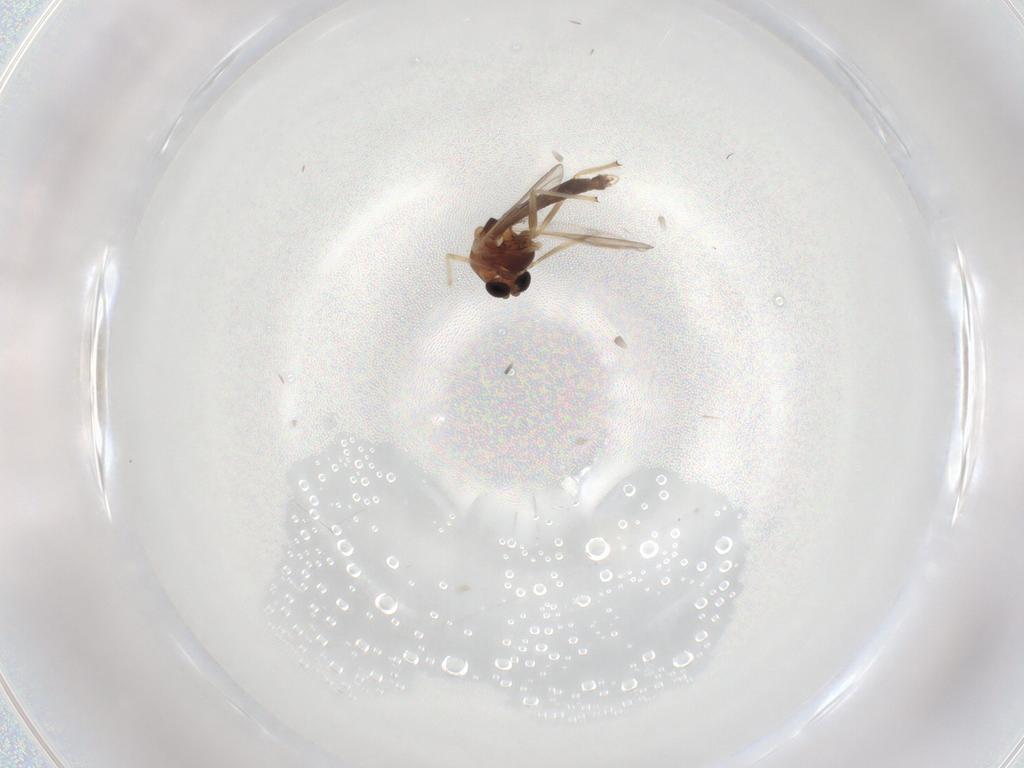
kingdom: Animalia
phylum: Arthropoda
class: Insecta
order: Diptera
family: Chironomidae
